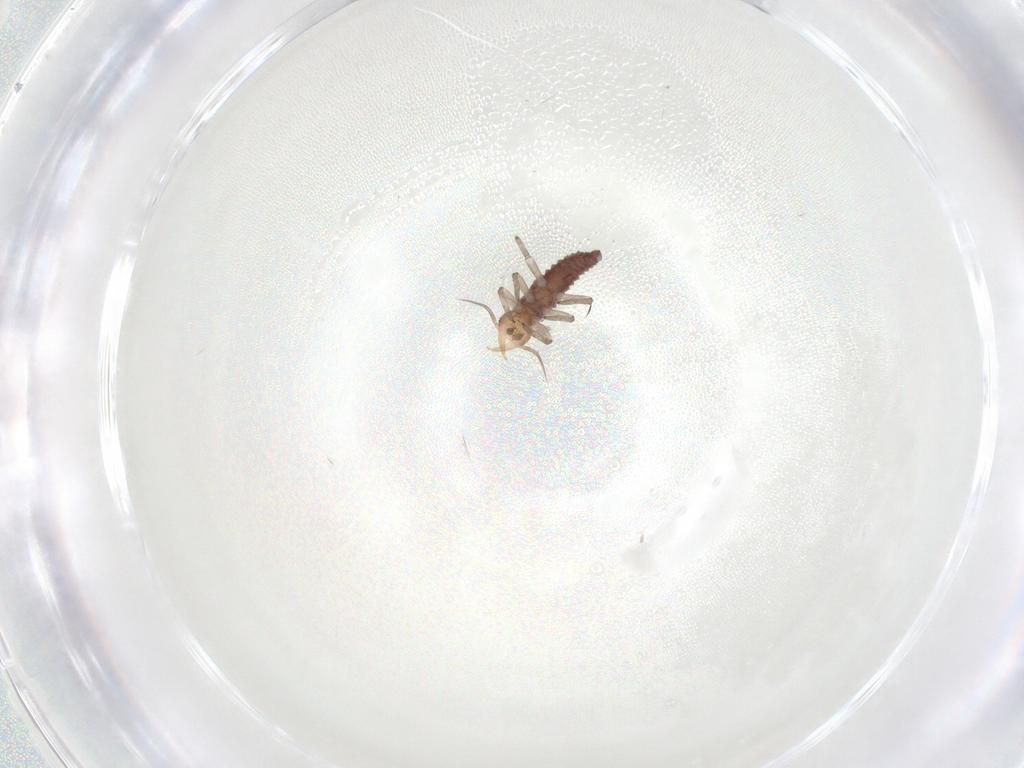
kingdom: Animalia
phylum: Arthropoda
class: Insecta
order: Neuroptera
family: Hemerobiidae
